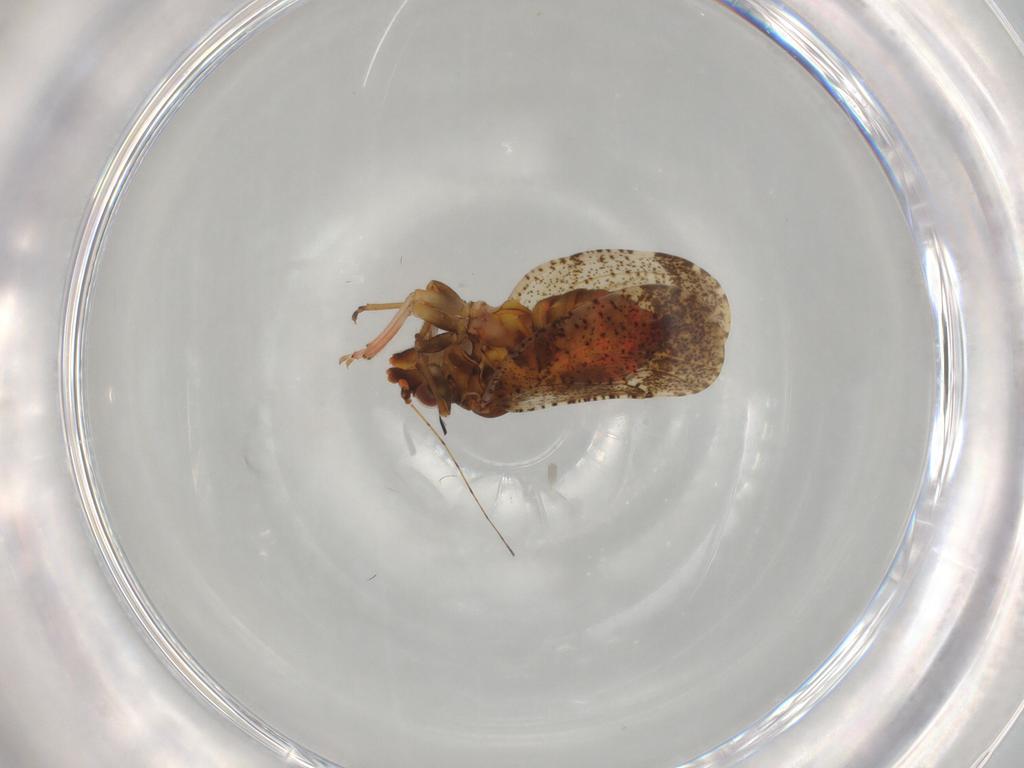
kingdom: Animalia
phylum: Arthropoda
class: Insecta
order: Hemiptera
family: Psyllidae
